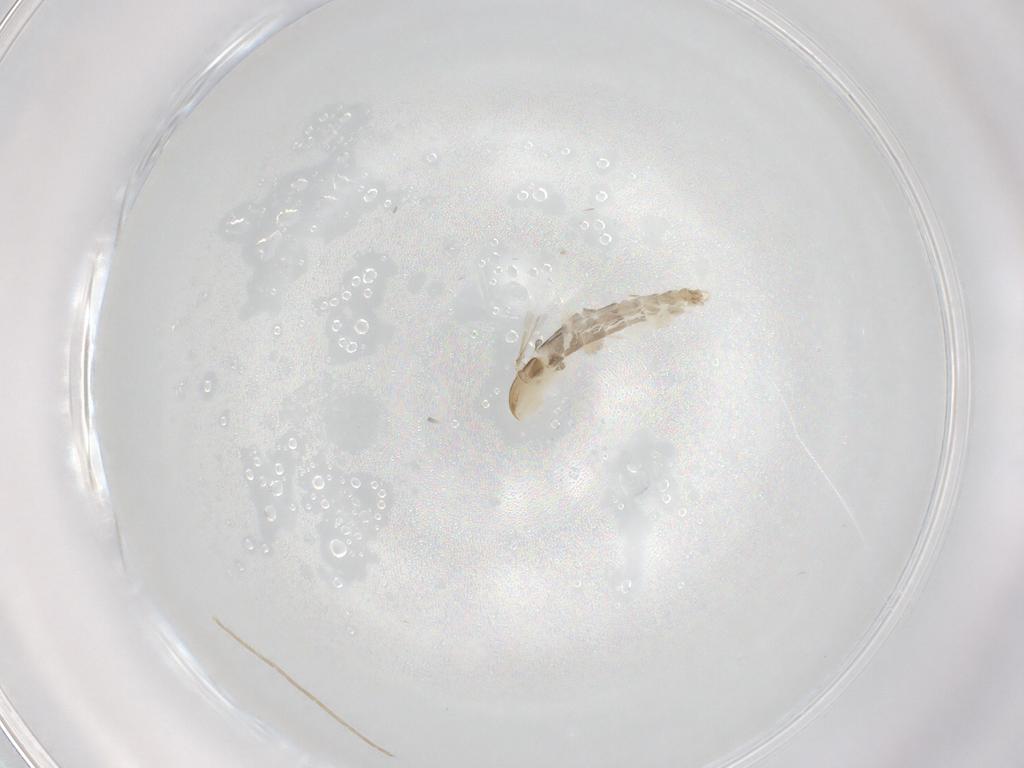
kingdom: Animalia
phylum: Arthropoda
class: Insecta
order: Diptera
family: Chironomidae
